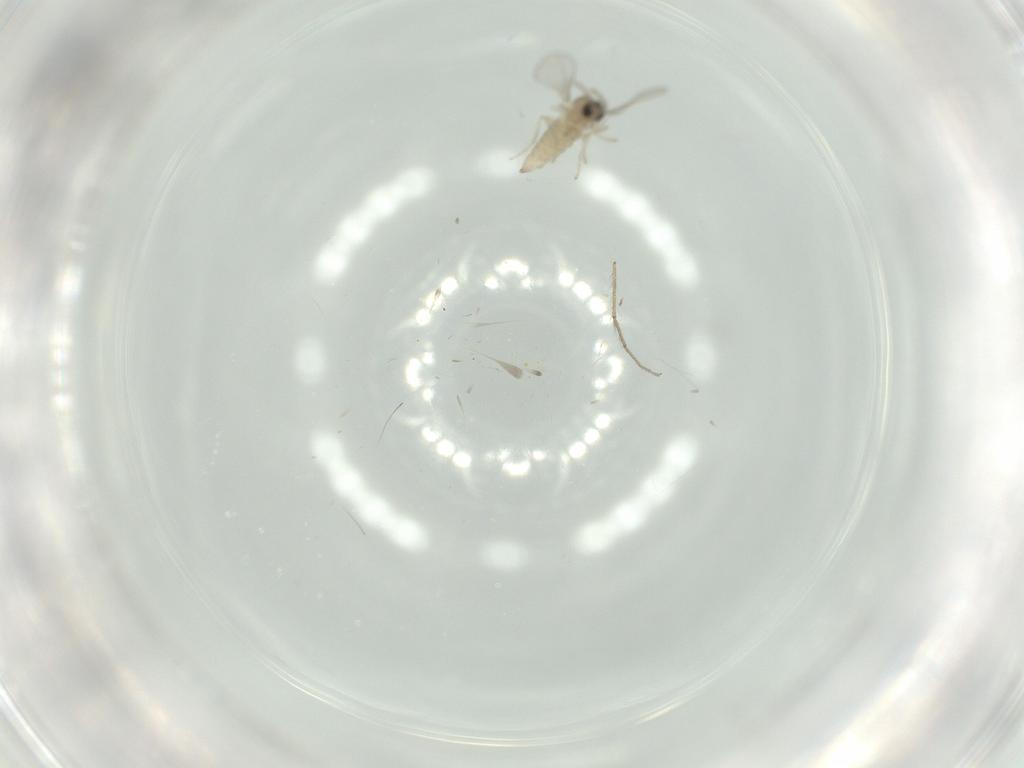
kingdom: Animalia
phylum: Arthropoda
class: Insecta
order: Diptera
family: Cecidomyiidae
